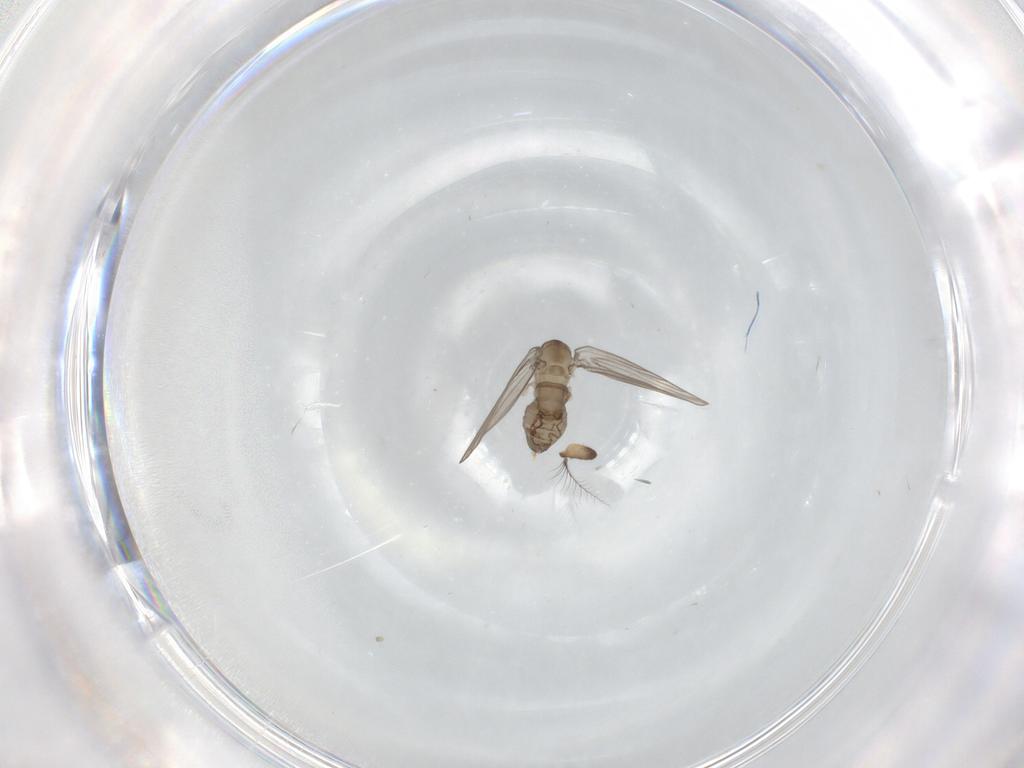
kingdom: Animalia
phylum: Arthropoda
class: Insecta
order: Diptera
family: Psychodidae
